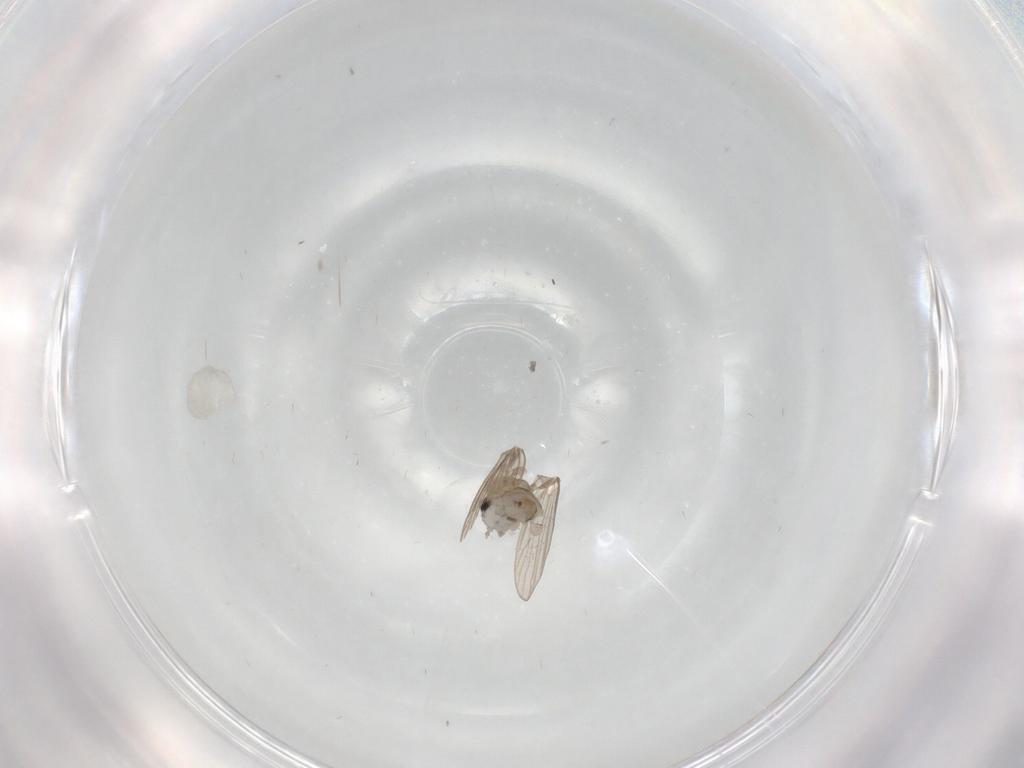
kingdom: Animalia
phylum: Arthropoda
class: Insecta
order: Diptera
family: Psychodidae
